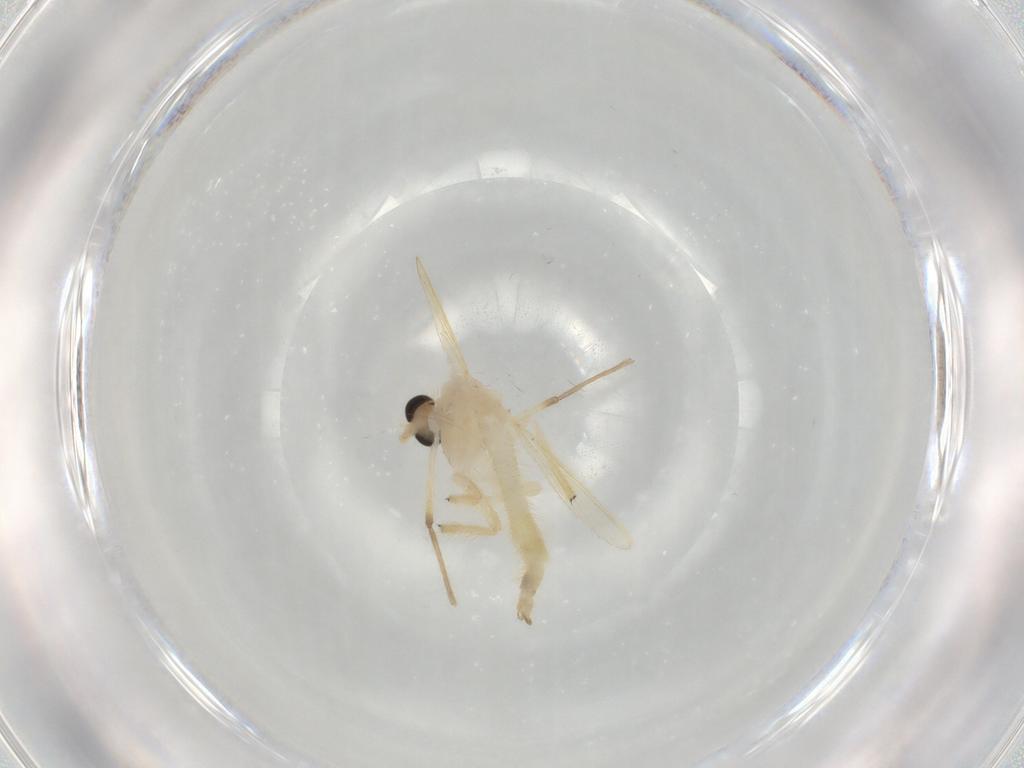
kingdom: Animalia
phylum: Arthropoda
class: Insecta
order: Diptera
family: Chironomidae
